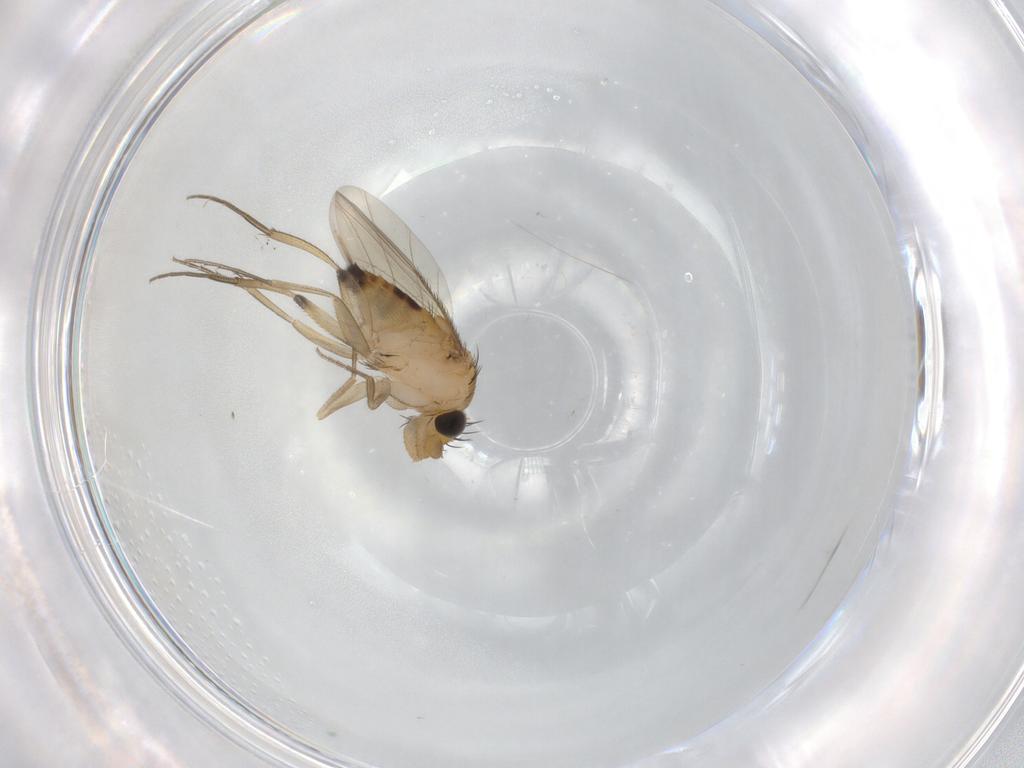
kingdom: Animalia
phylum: Arthropoda
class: Insecta
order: Diptera
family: Phoridae
